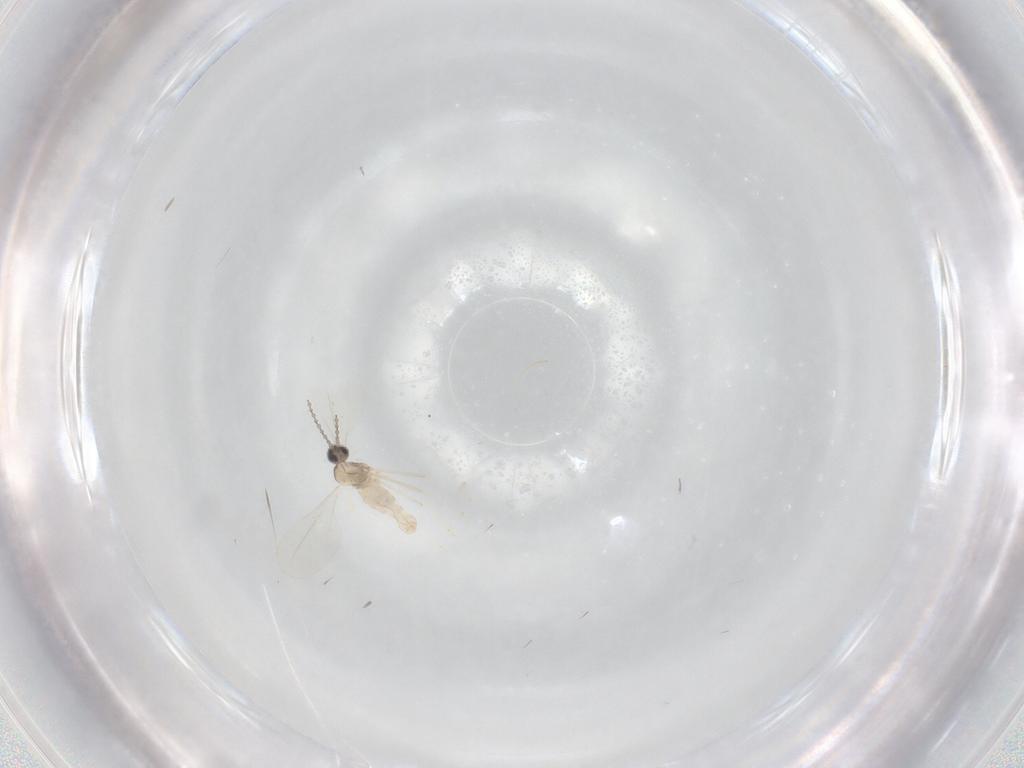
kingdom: Animalia
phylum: Arthropoda
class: Insecta
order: Diptera
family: Cecidomyiidae
